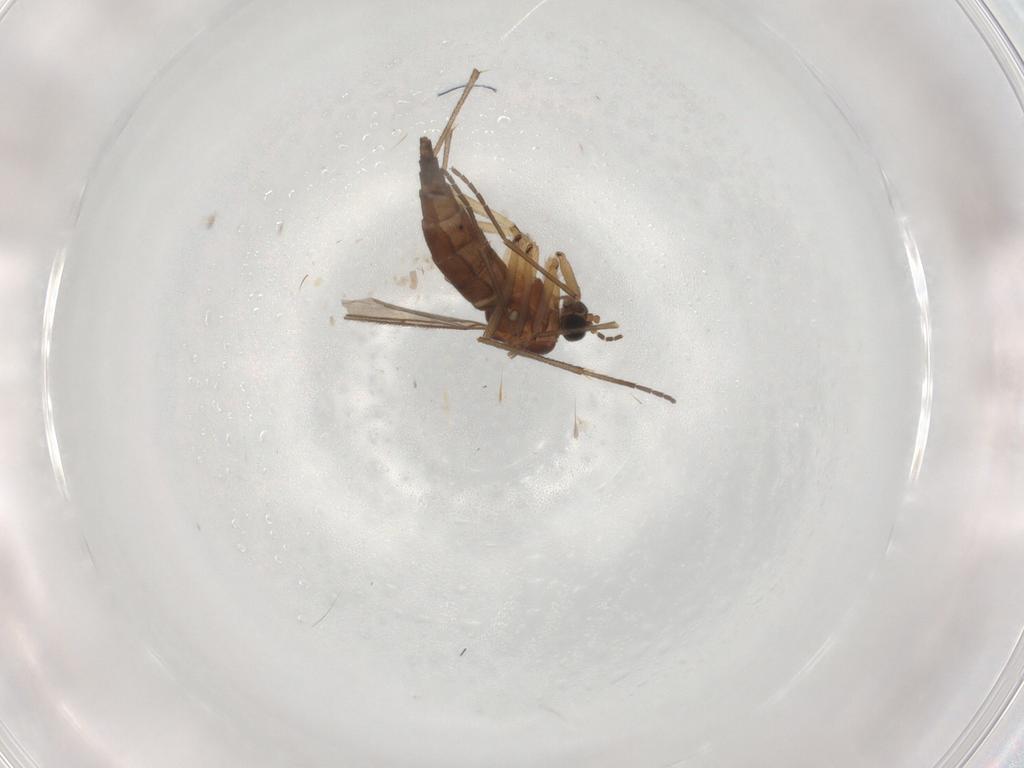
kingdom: Animalia
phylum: Arthropoda
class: Insecta
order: Diptera
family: Sciaridae
